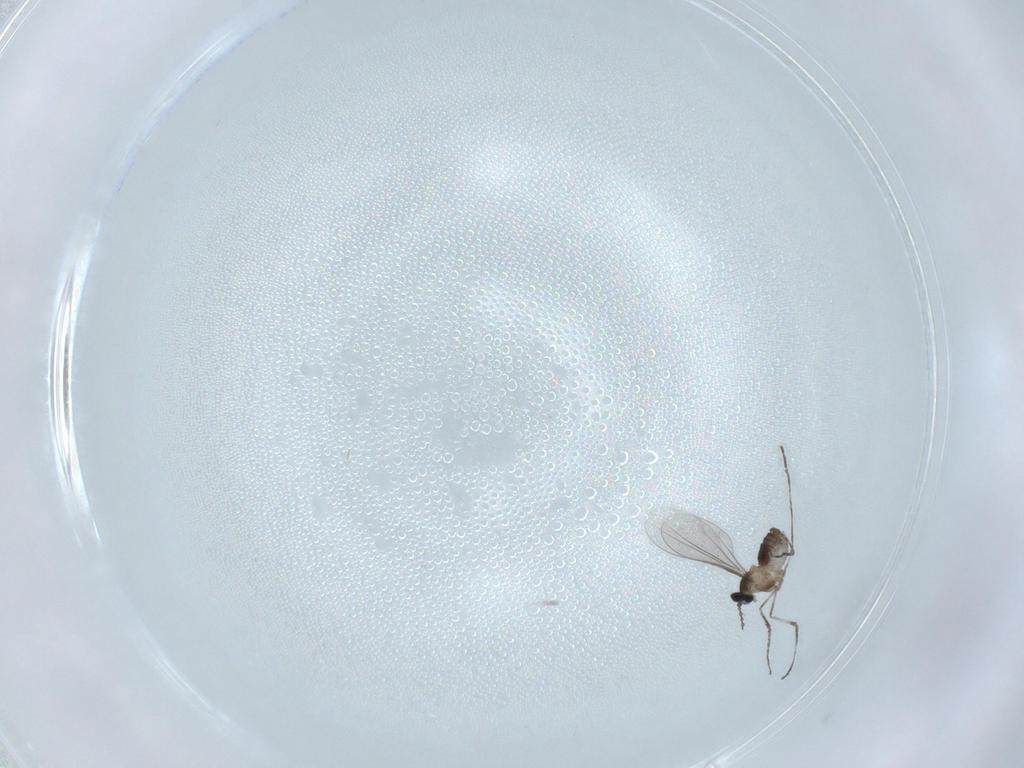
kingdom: Animalia
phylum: Arthropoda
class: Insecta
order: Diptera
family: Cecidomyiidae
